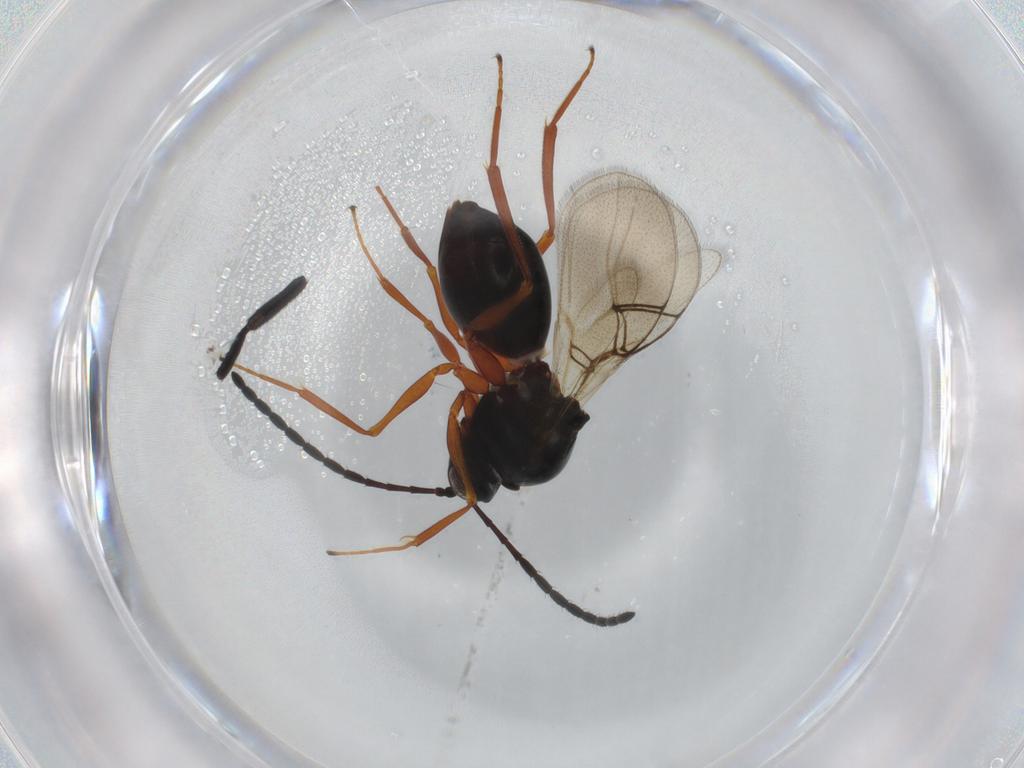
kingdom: Animalia
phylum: Arthropoda
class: Insecta
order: Hymenoptera
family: Figitidae
